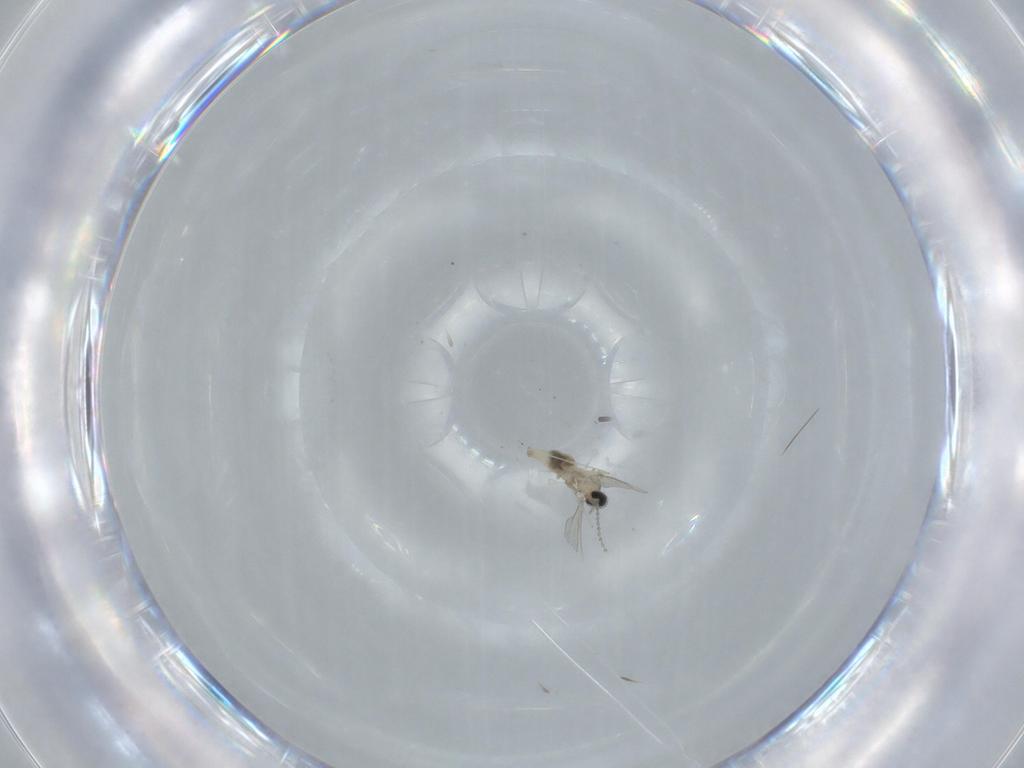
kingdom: Animalia
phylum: Arthropoda
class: Insecta
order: Diptera
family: Cecidomyiidae
